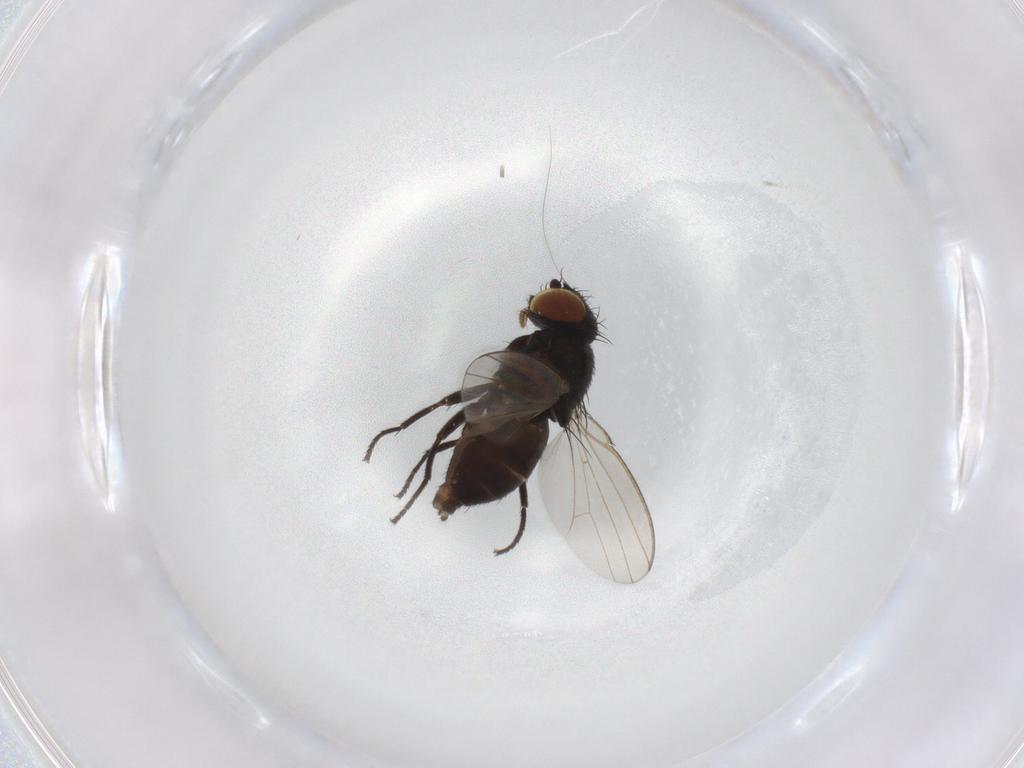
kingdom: Animalia
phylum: Arthropoda
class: Insecta
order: Diptera
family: Milichiidae
